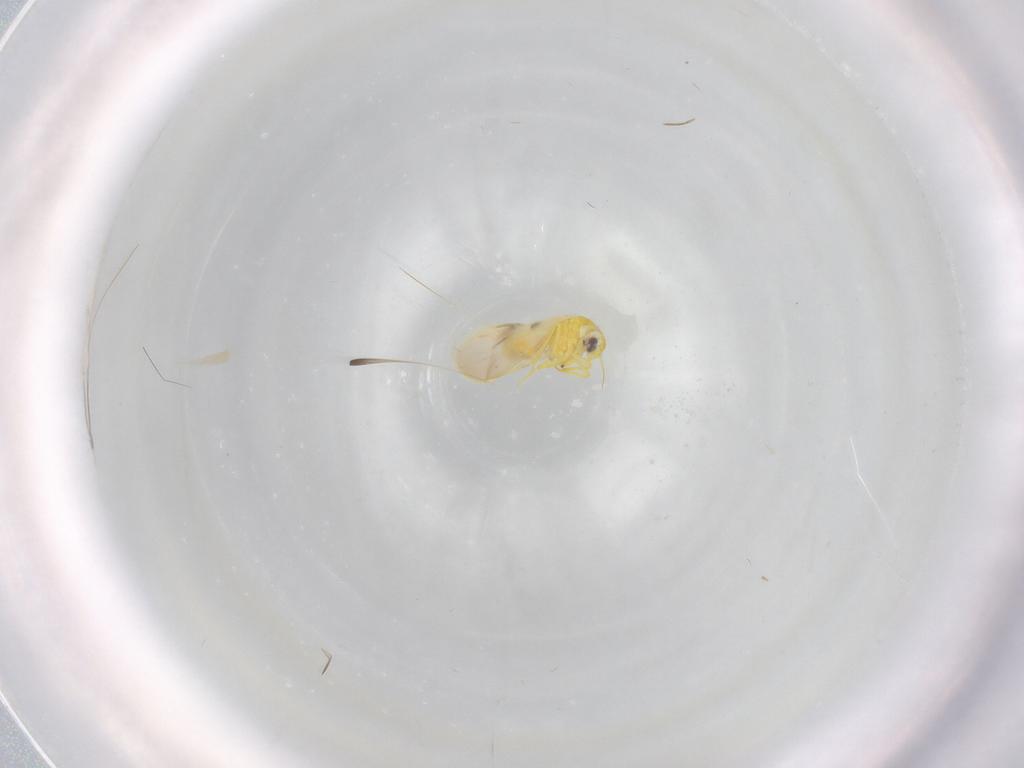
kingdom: Animalia
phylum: Arthropoda
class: Insecta
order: Hemiptera
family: Aleyrodidae
